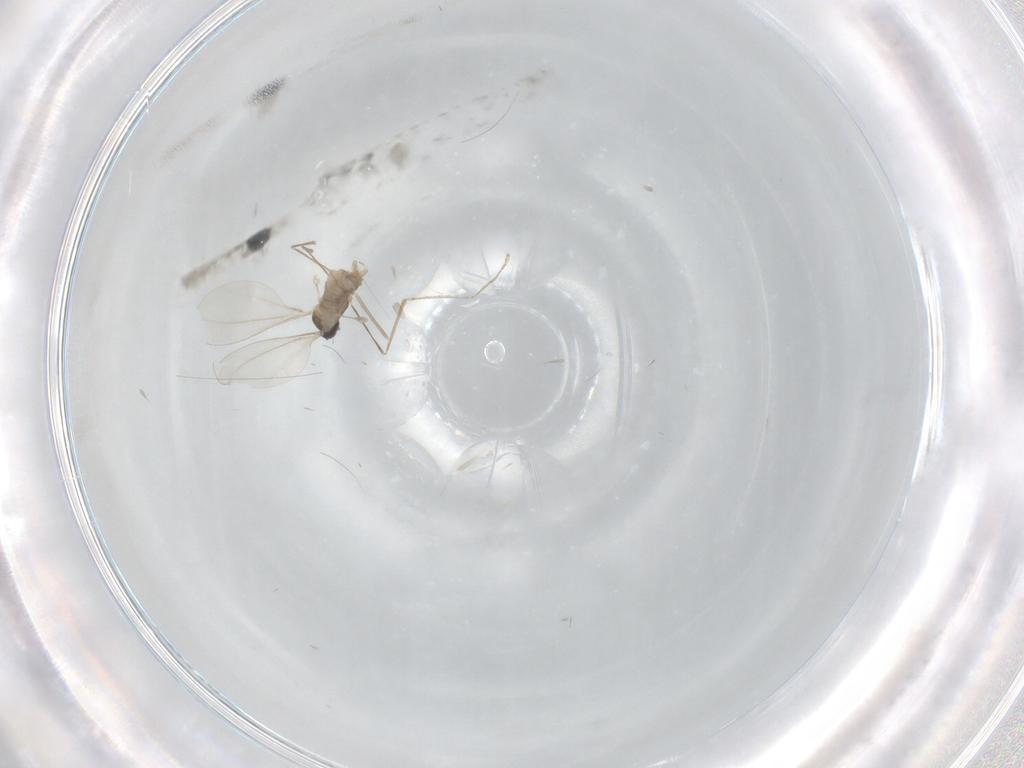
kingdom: Animalia
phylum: Arthropoda
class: Insecta
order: Diptera
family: Cecidomyiidae
